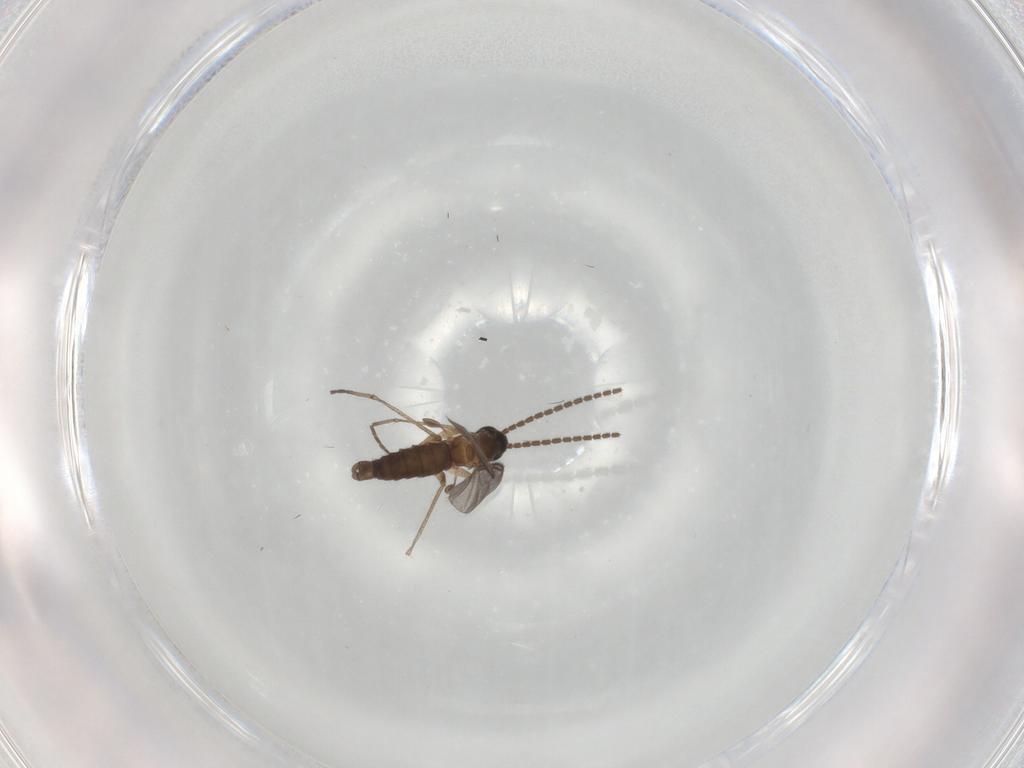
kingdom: Animalia
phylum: Arthropoda
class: Insecta
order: Diptera
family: Sciaridae
